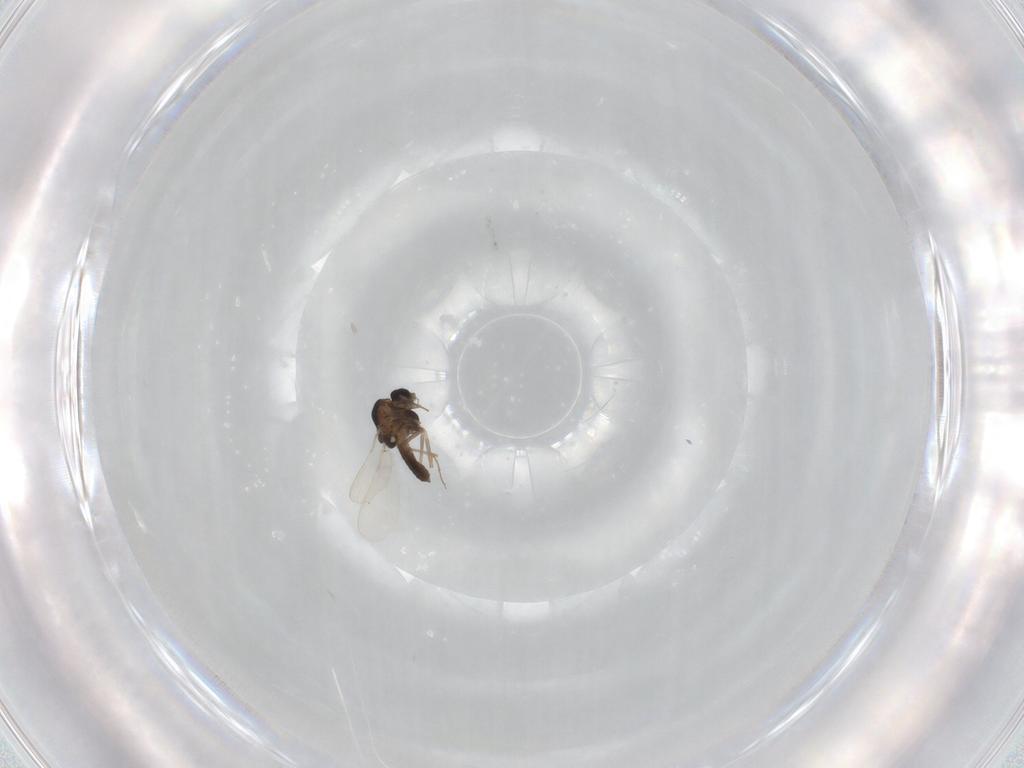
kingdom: Animalia
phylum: Arthropoda
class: Insecta
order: Diptera
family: Chironomidae
